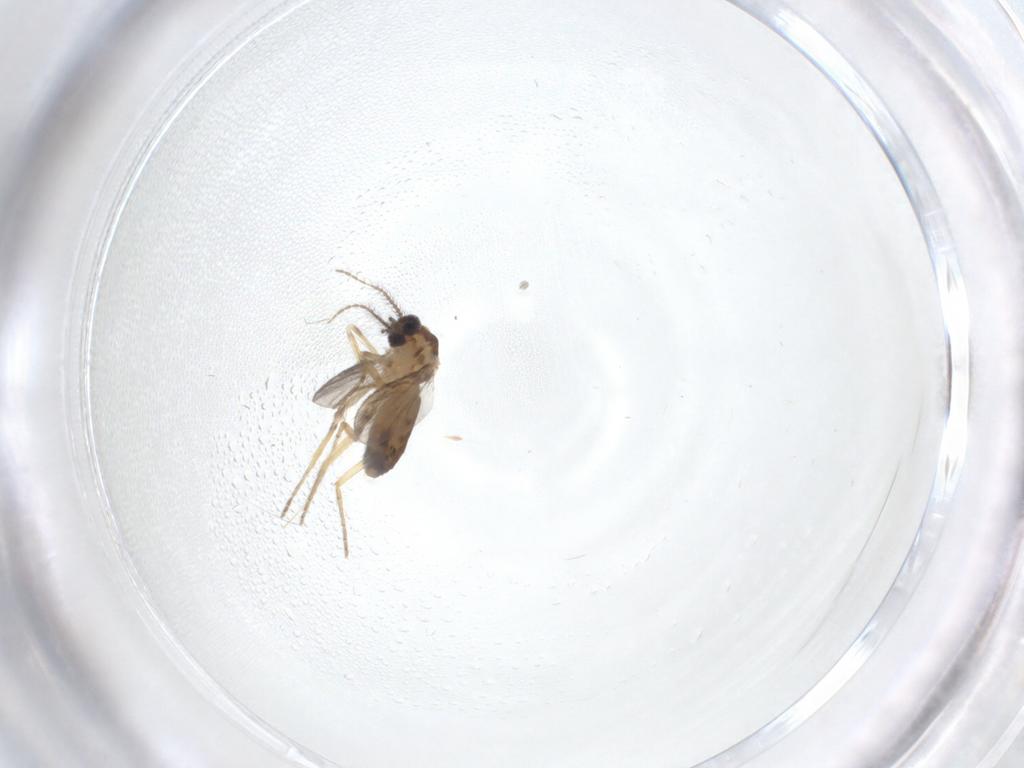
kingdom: Animalia
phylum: Arthropoda
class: Insecta
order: Diptera
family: Ceratopogonidae
